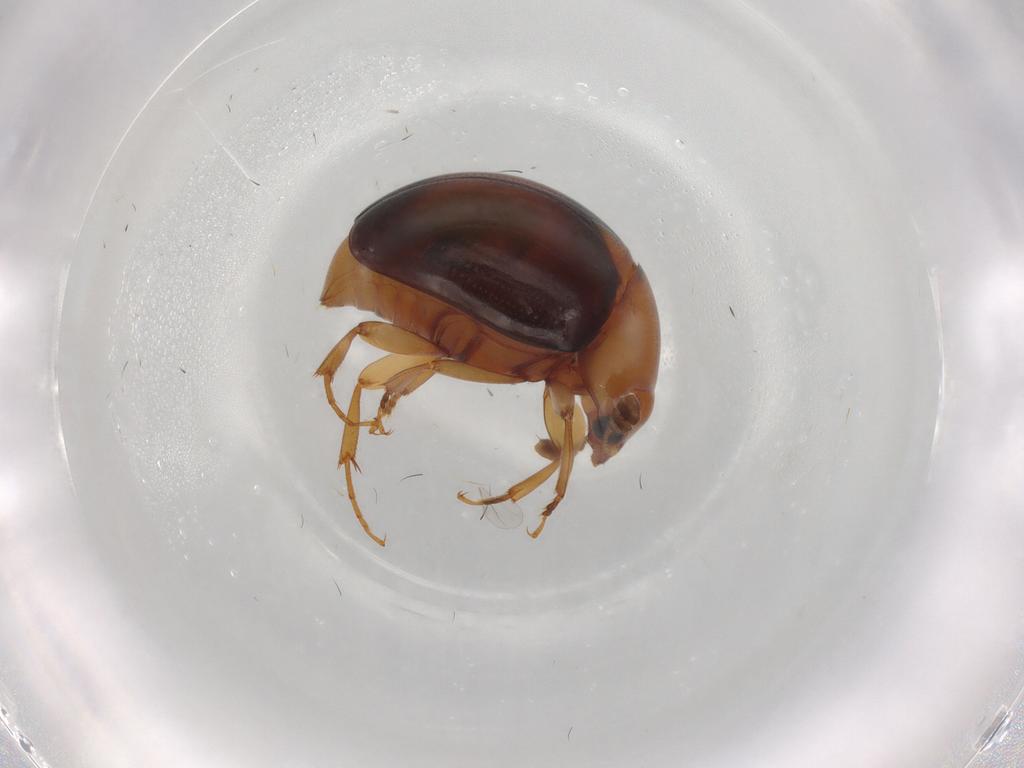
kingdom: Animalia
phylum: Arthropoda
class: Insecta
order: Coleoptera
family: Nitidulidae
